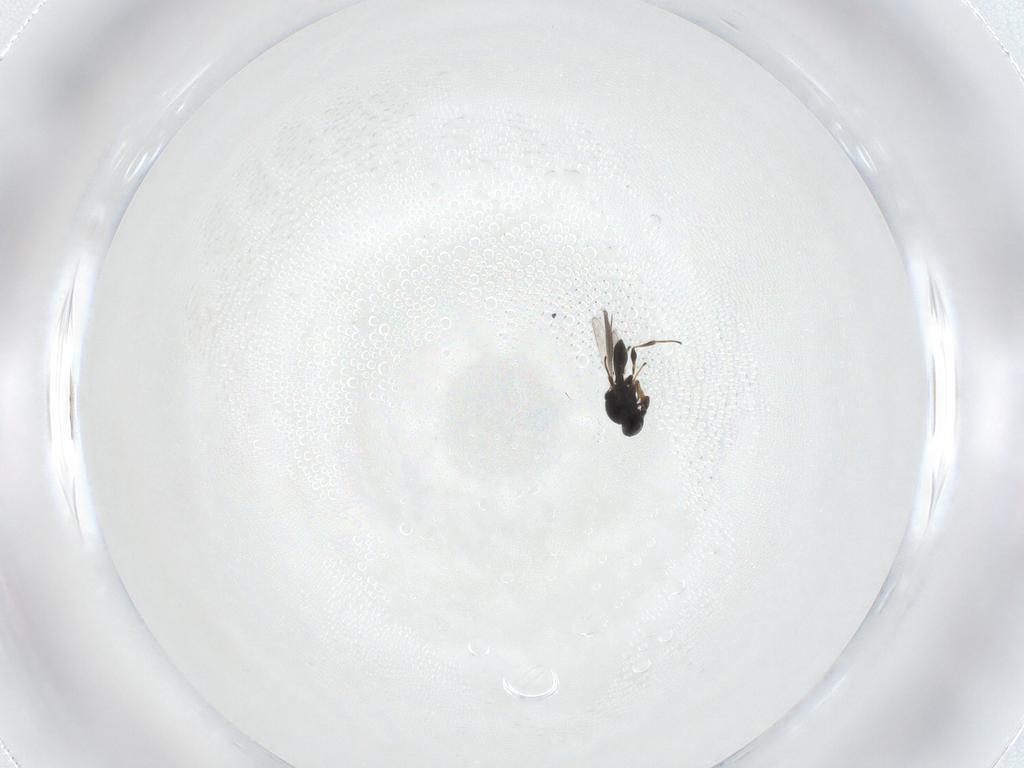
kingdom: Animalia
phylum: Arthropoda
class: Insecta
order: Hymenoptera
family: Platygastridae
